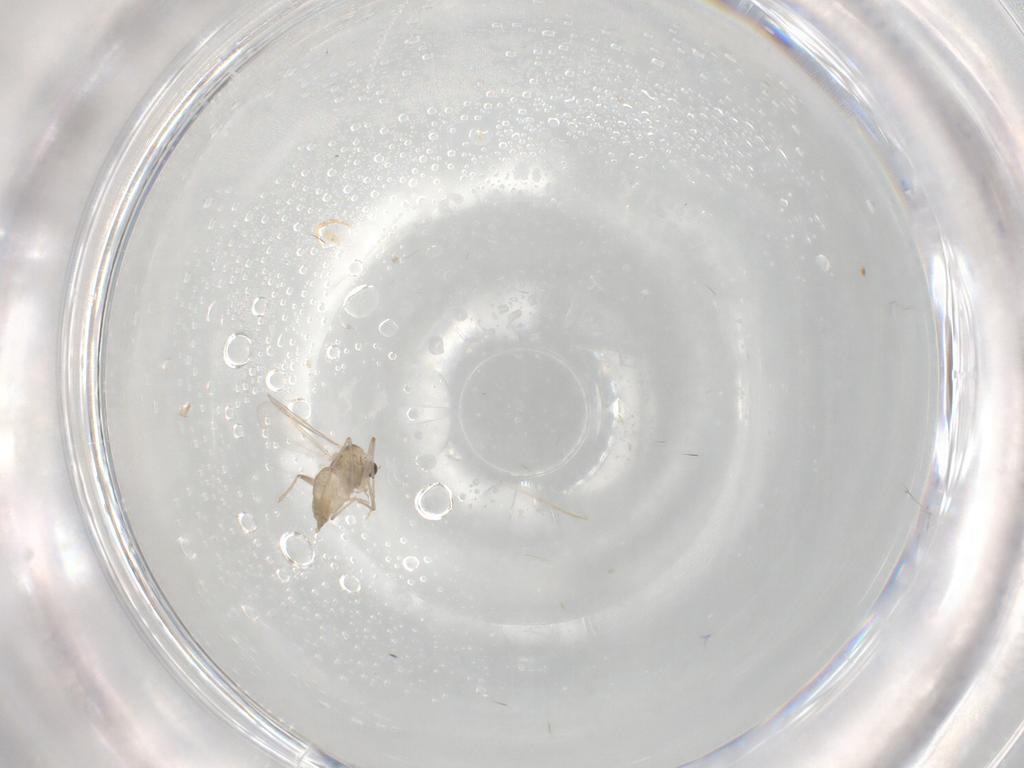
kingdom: Animalia
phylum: Arthropoda
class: Insecta
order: Diptera
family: Chironomidae
